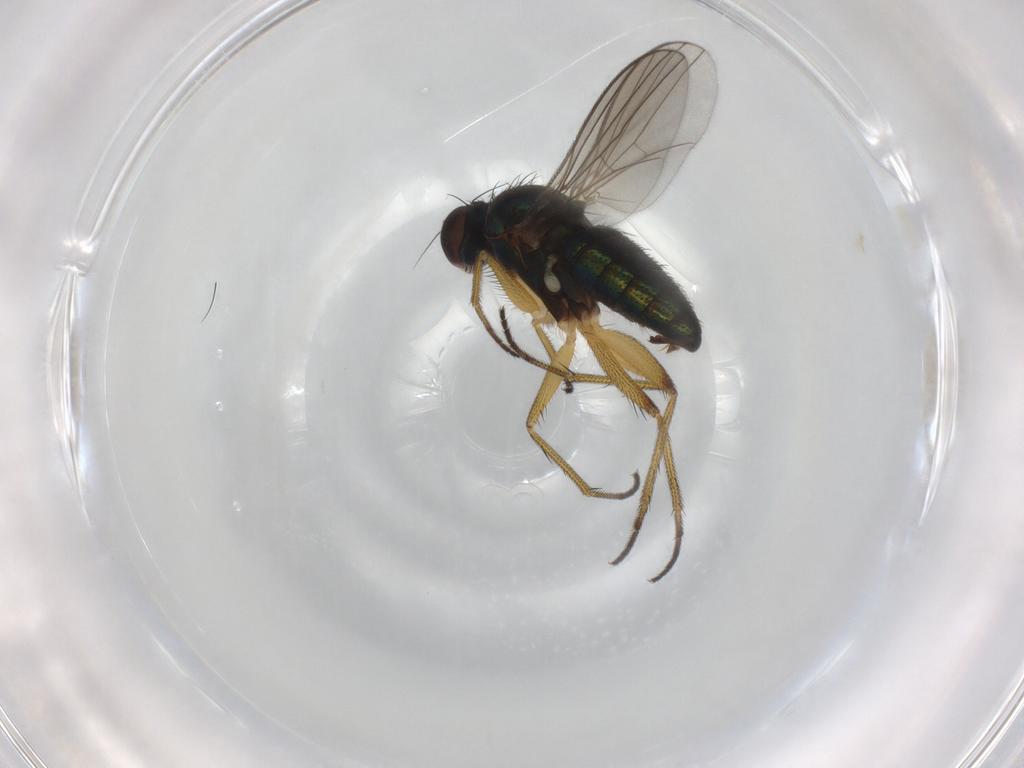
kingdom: Animalia
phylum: Arthropoda
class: Insecta
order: Diptera
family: Dolichopodidae
